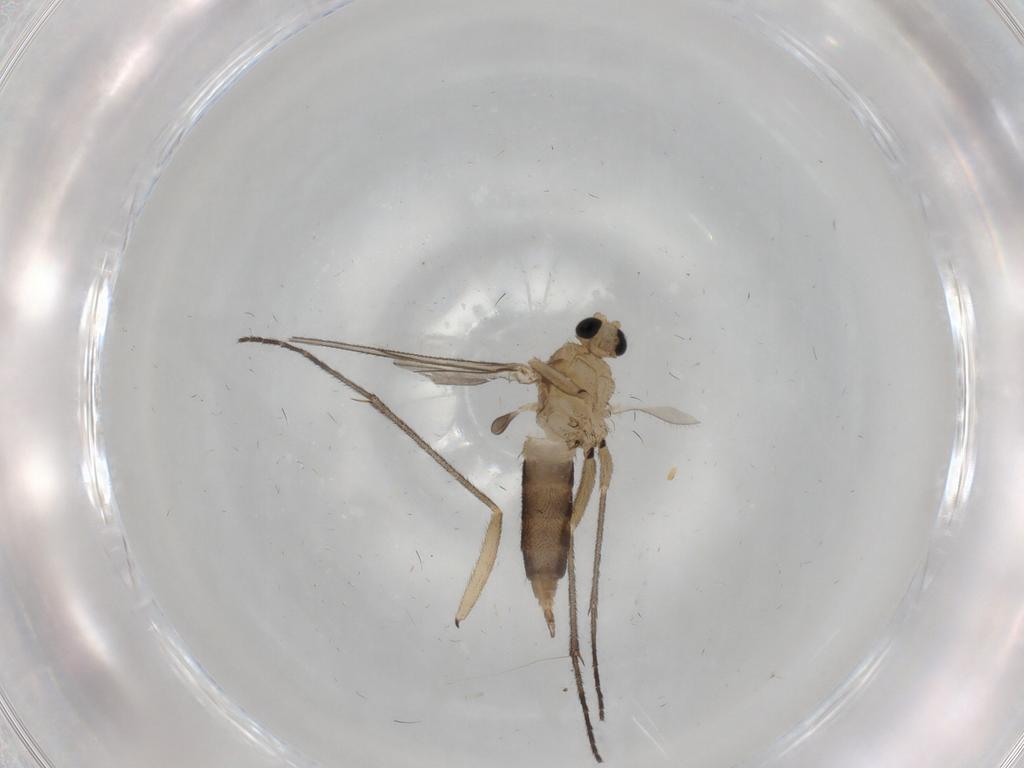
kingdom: Animalia
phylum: Arthropoda
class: Insecta
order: Diptera
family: Sciaridae
